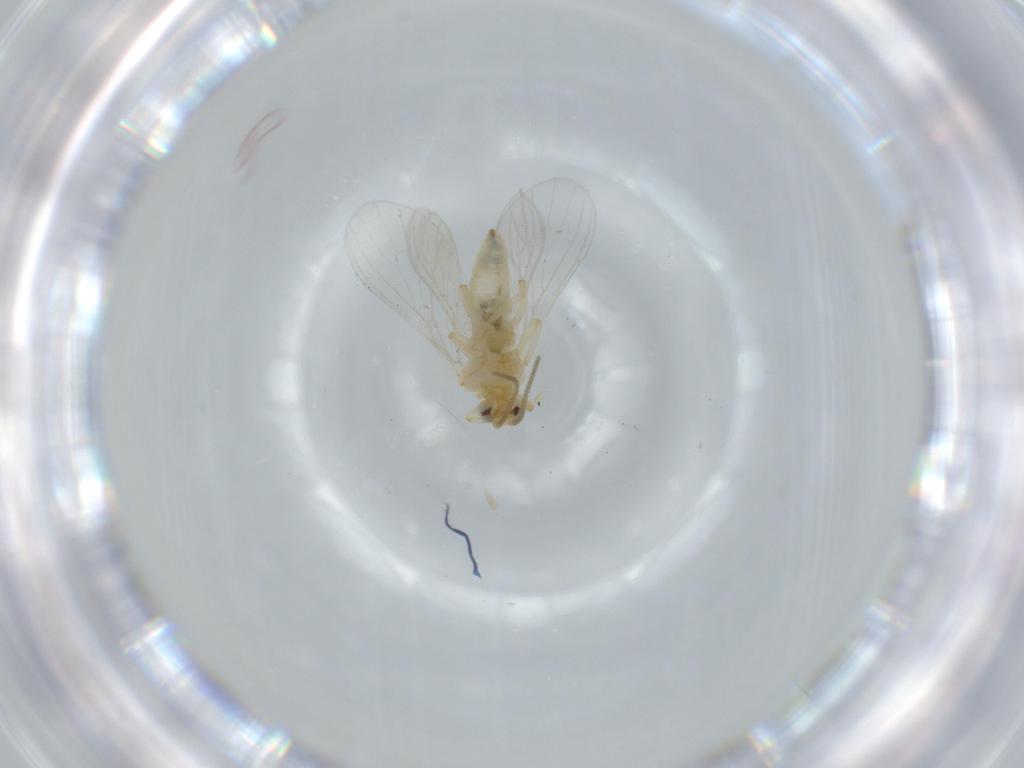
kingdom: Animalia
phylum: Arthropoda
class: Insecta
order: Neuroptera
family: Coniopterygidae
